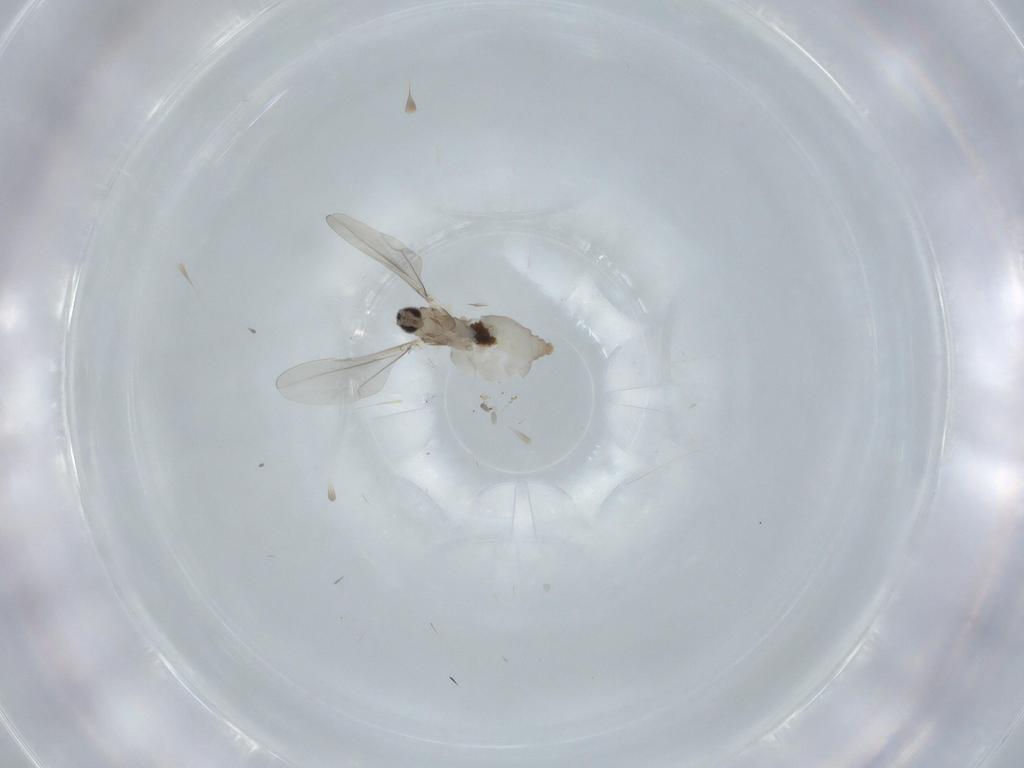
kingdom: Animalia
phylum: Arthropoda
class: Insecta
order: Diptera
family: Cecidomyiidae
